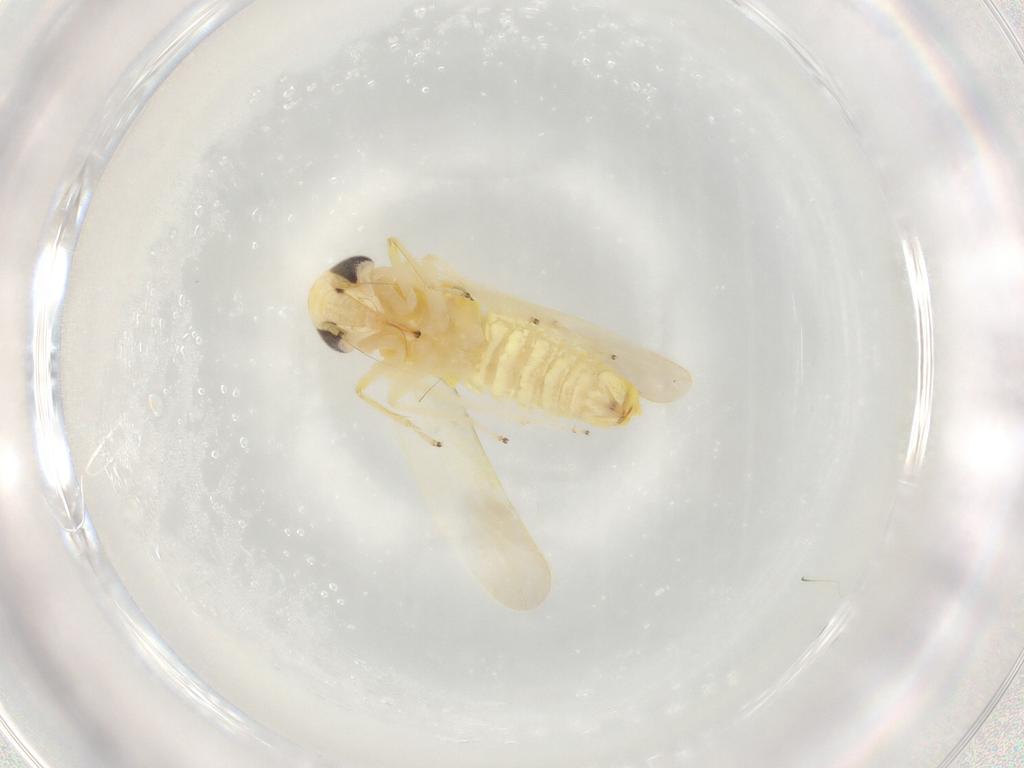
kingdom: Animalia
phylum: Arthropoda
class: Insecta
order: Hemiptera
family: Cicadellidae
